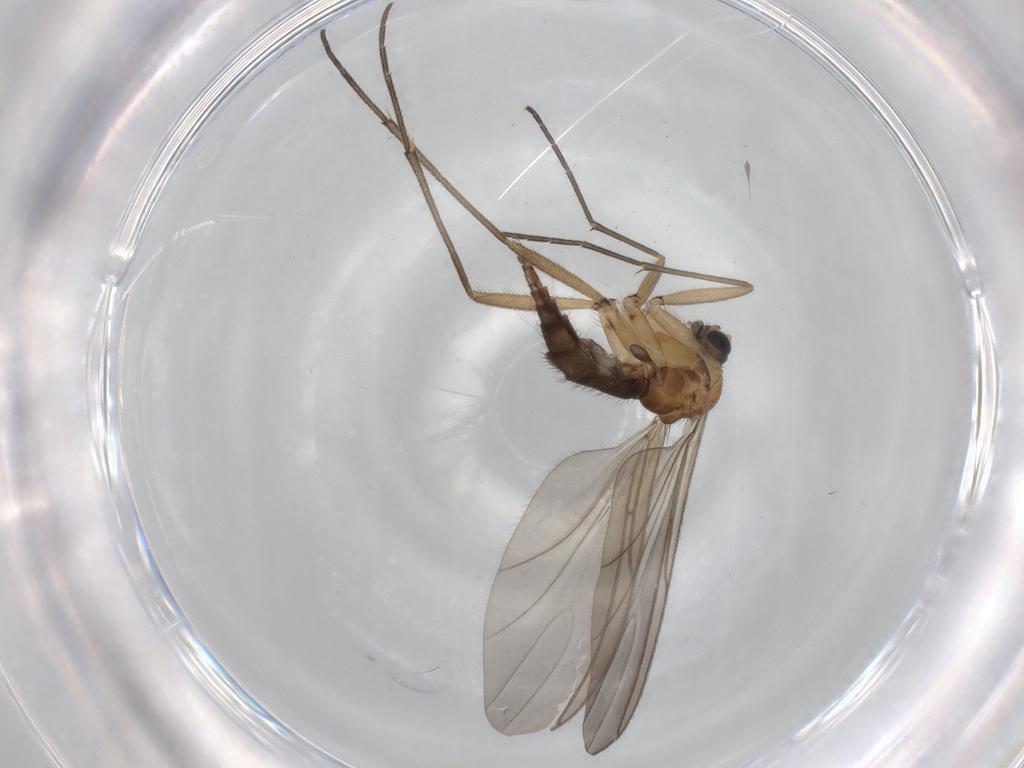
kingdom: Animalia
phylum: Arthropoda
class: Insecta
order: Diptera
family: Sciaridae
